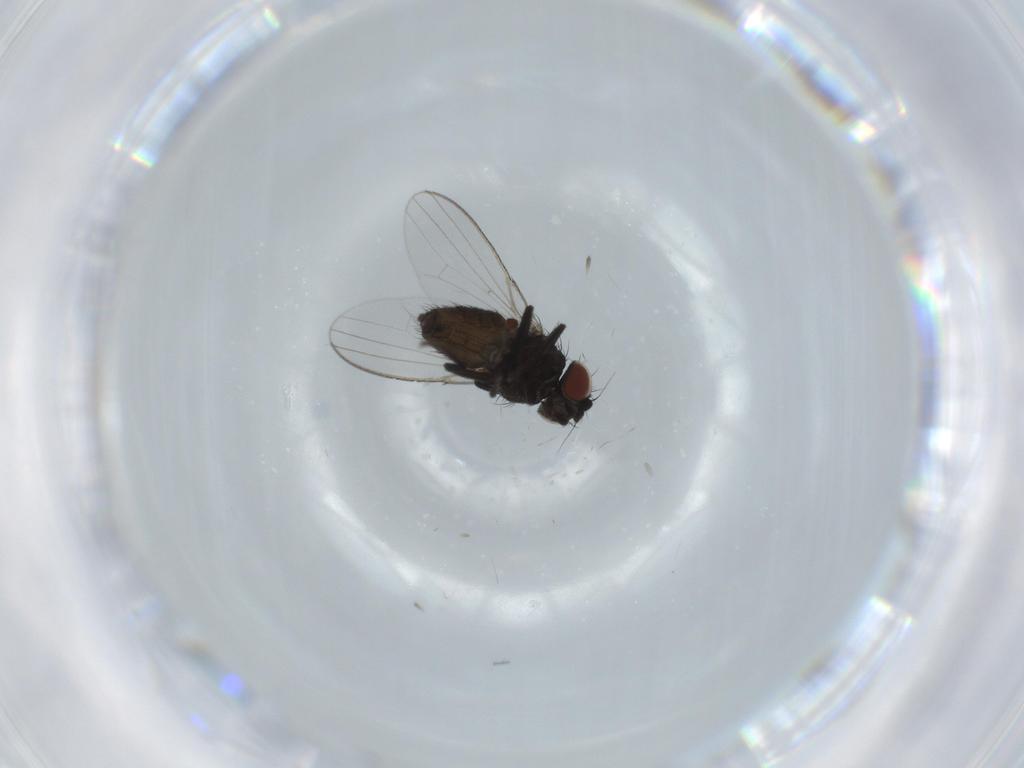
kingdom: Animalia
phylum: Arthropoda
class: Insecta
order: Diptera
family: Milichiidae
